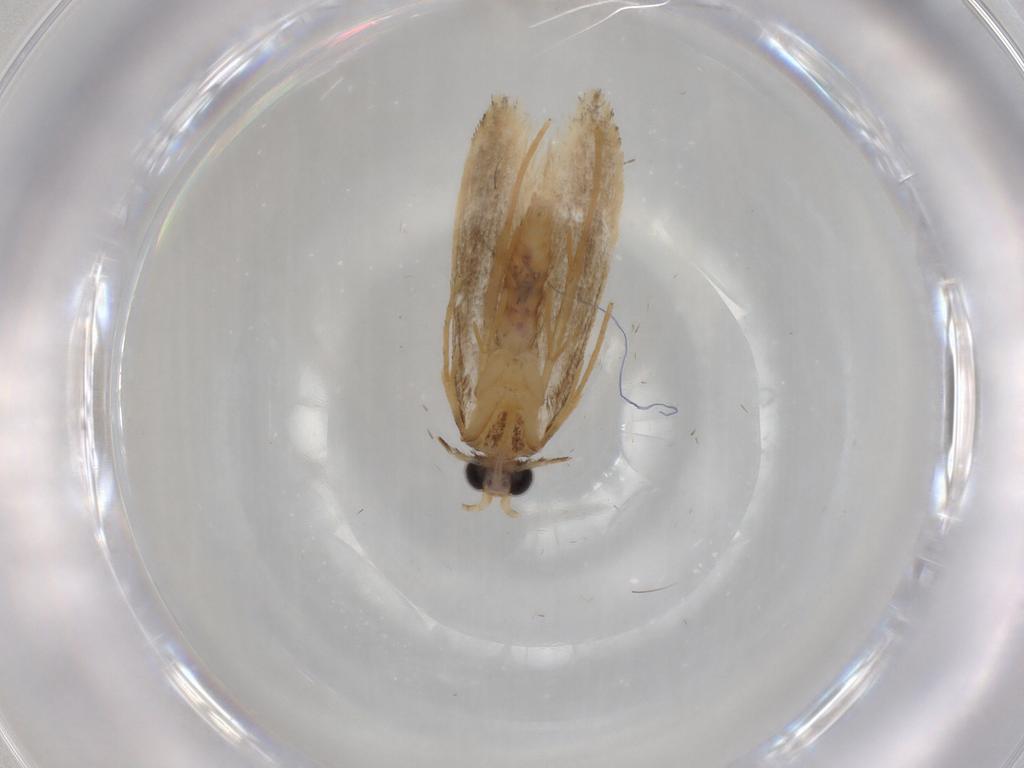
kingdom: Animalia
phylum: Arthropoda
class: Insecta
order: Lepidoptera
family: Nepticulidae
